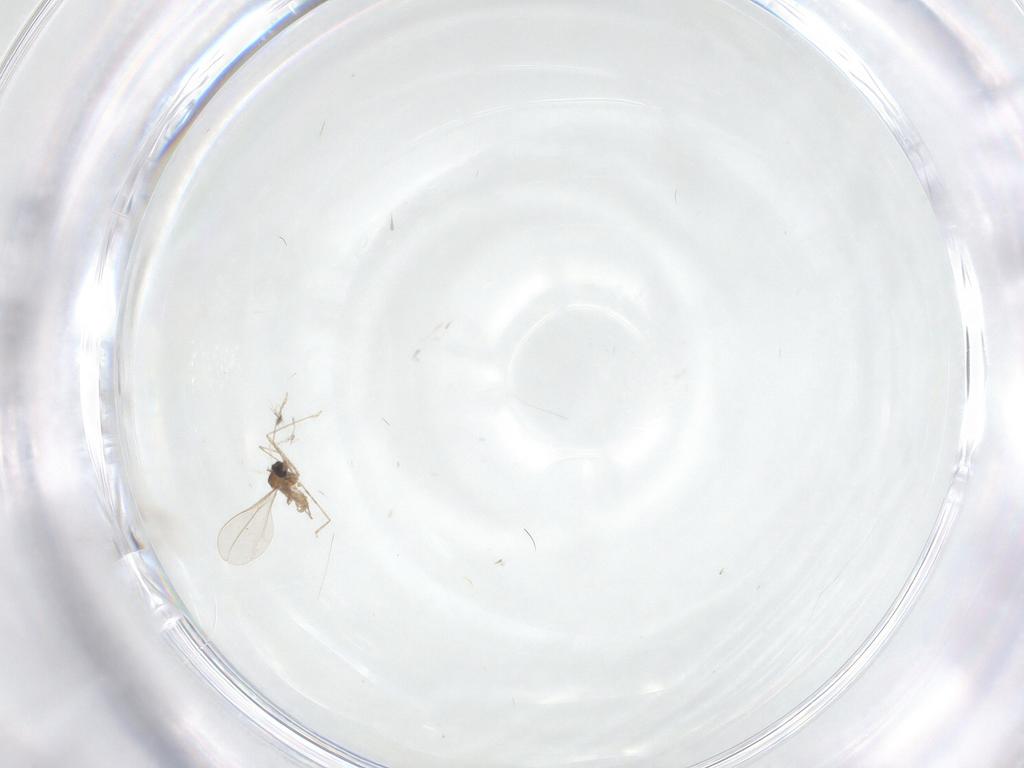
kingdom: Animalia
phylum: Arthropoda
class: Insecta
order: Diptera
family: Cecidomyiidae
